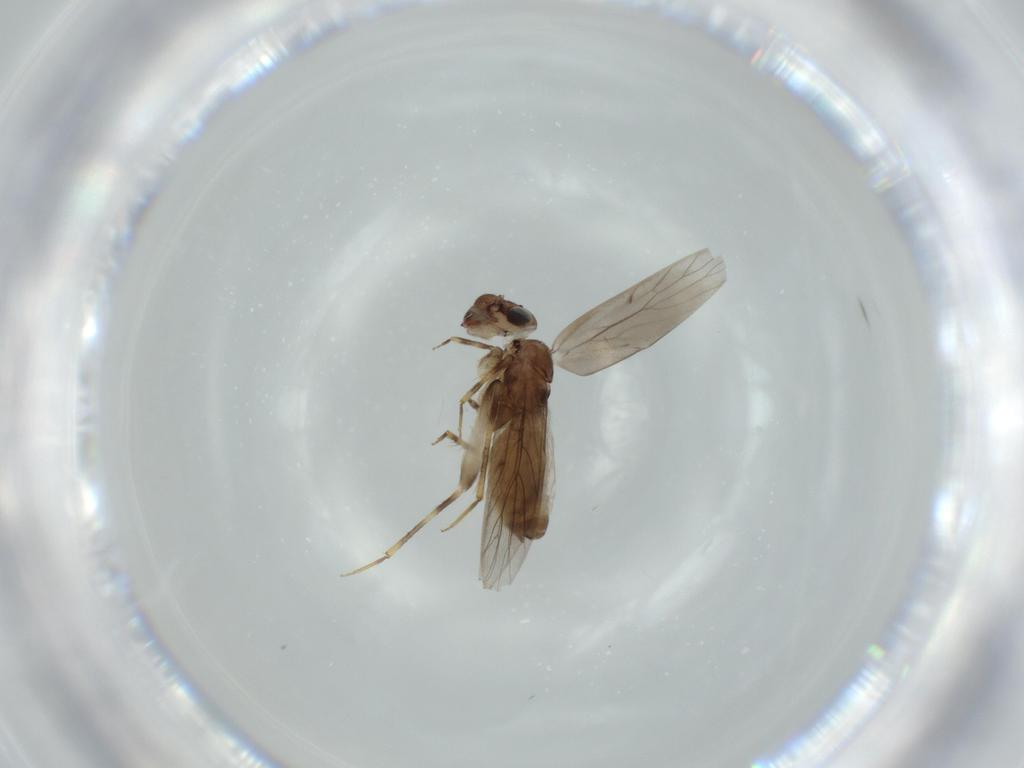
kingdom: Animalia
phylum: Arthropoda
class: Insecta
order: Psocodea
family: Lepidopsocidae
